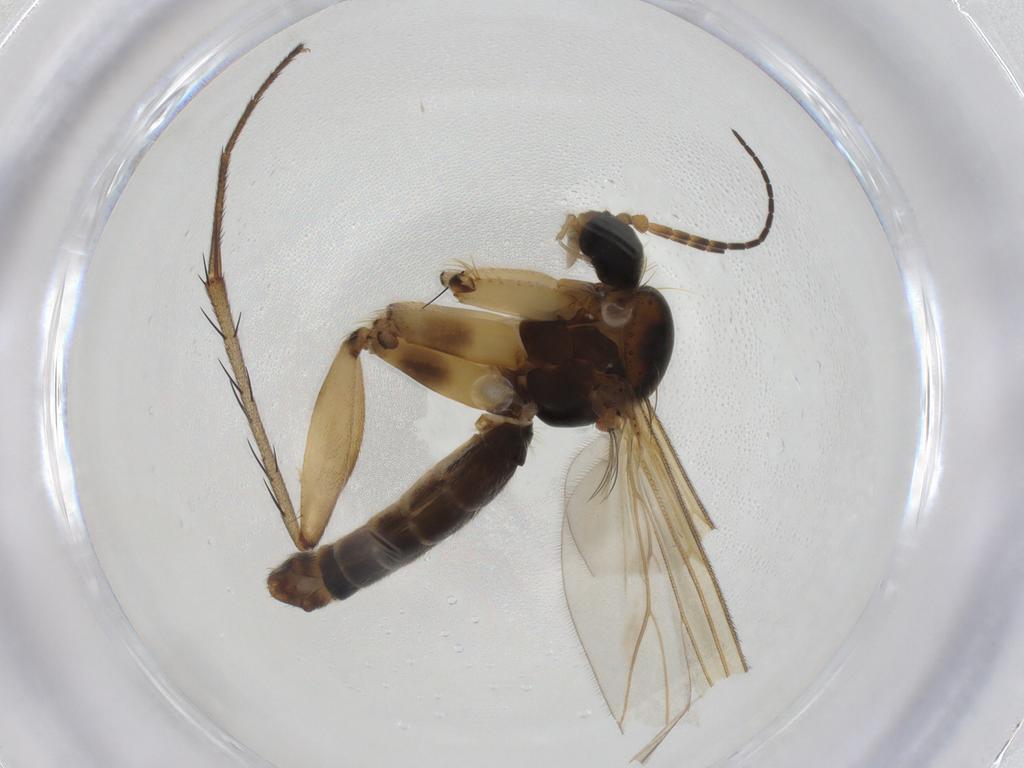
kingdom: Animalia
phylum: Arthropoda
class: Insecta
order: Diptera
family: Mycetophilidae
